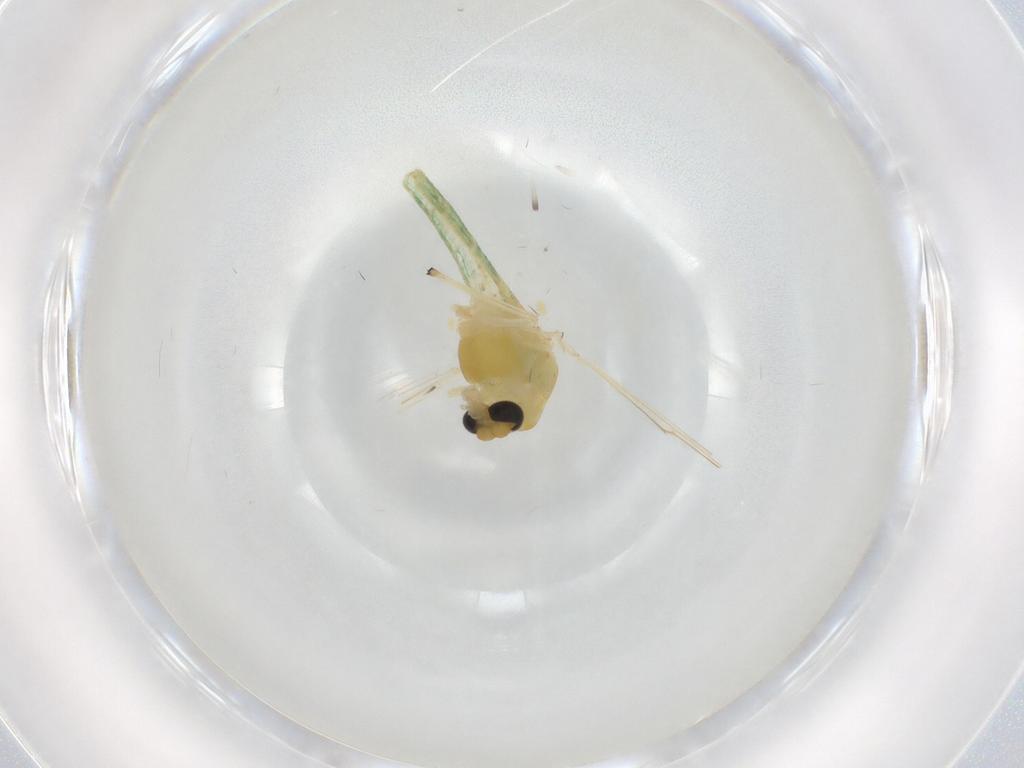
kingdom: Animalia
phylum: Arthropoda
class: Insecta
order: Diptera
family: Chironomidae
